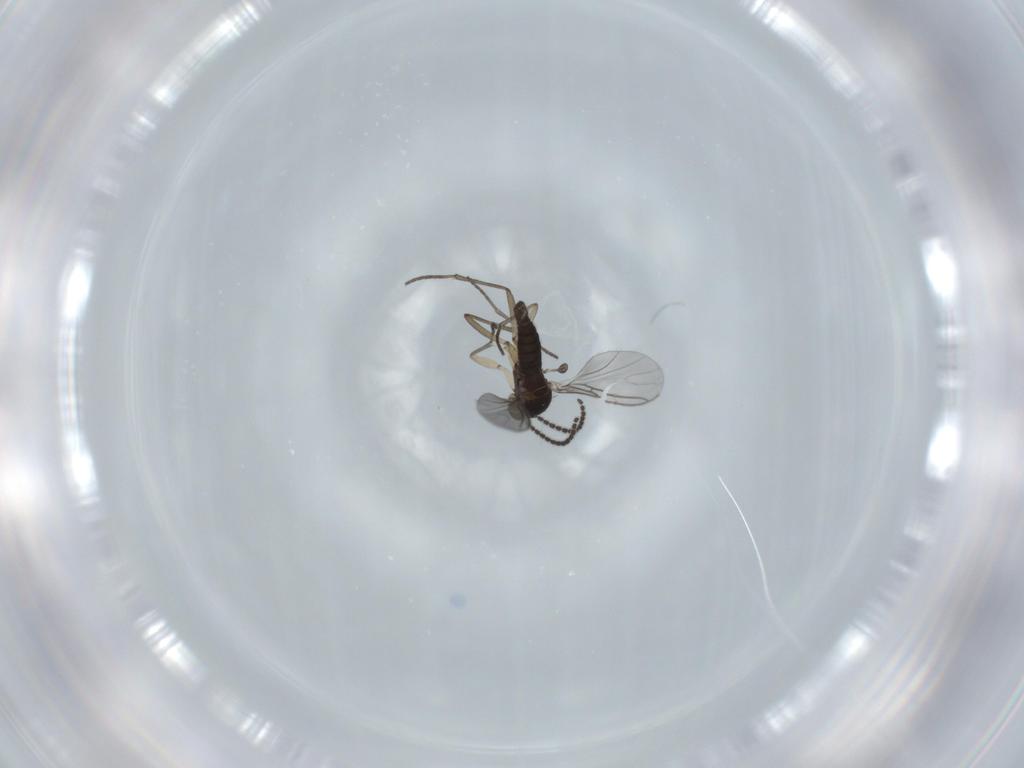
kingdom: Animalia
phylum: Arthropoda
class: Insecta
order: Diptera
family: Sciaridae
